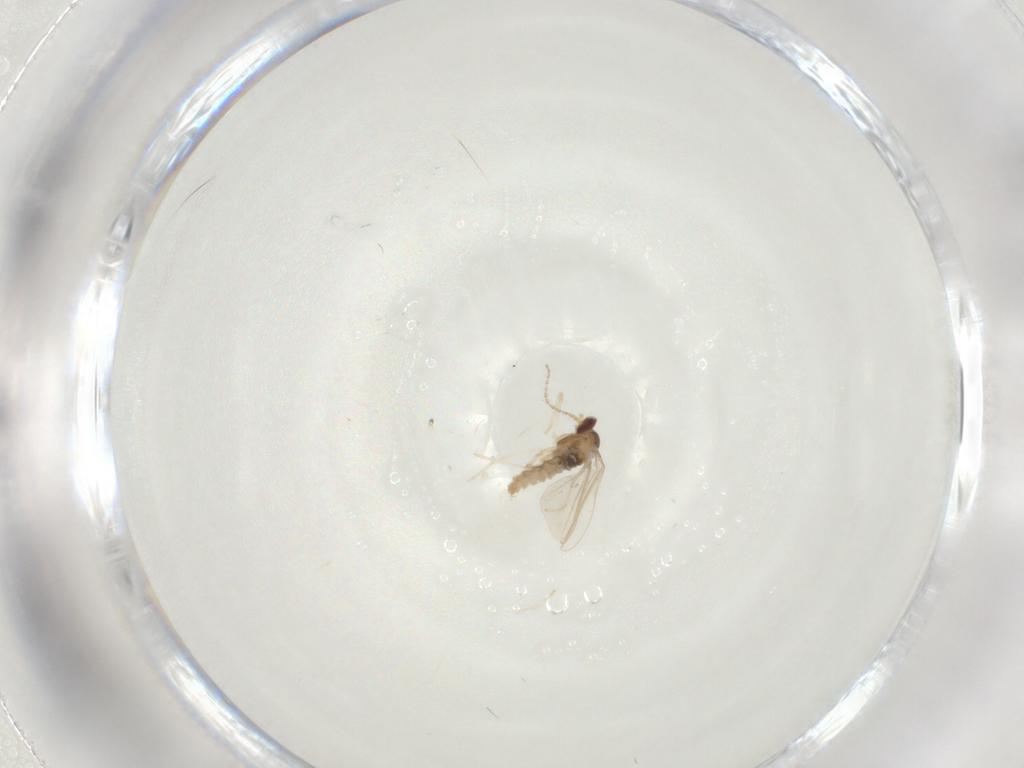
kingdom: Animalia
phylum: Arthropoda
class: Insecta
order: Diptera
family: Cecidomyiidae
